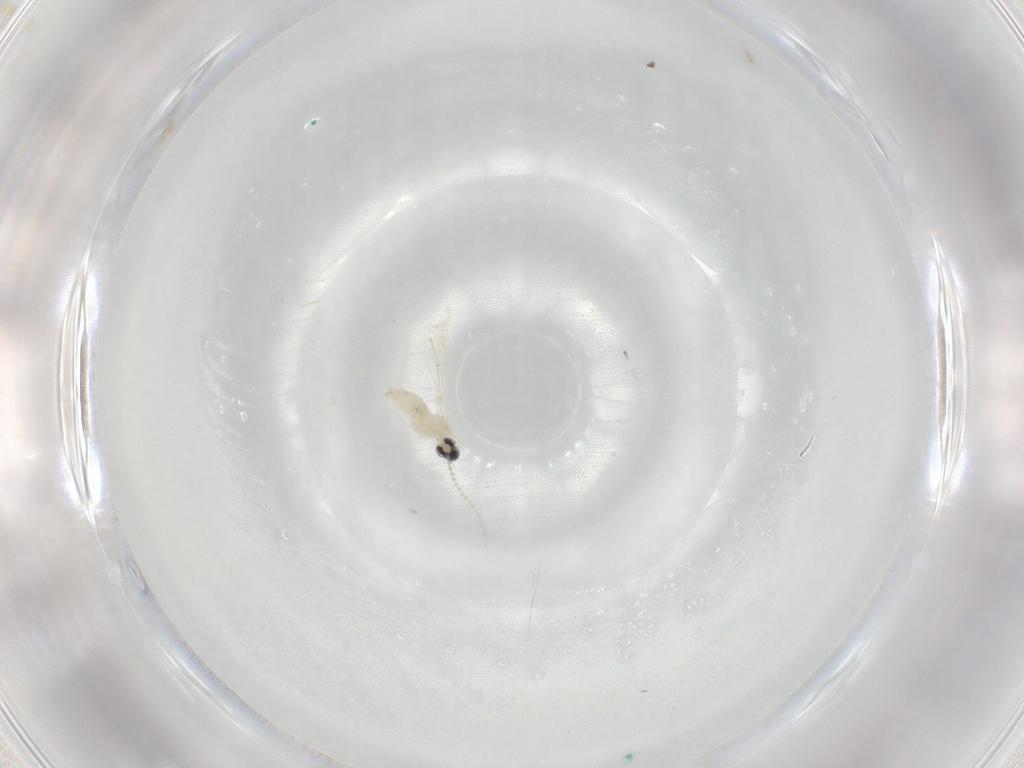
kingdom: Animalia
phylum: Arthropoda
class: Insecta
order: Diptera
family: Cecidomyiidae
